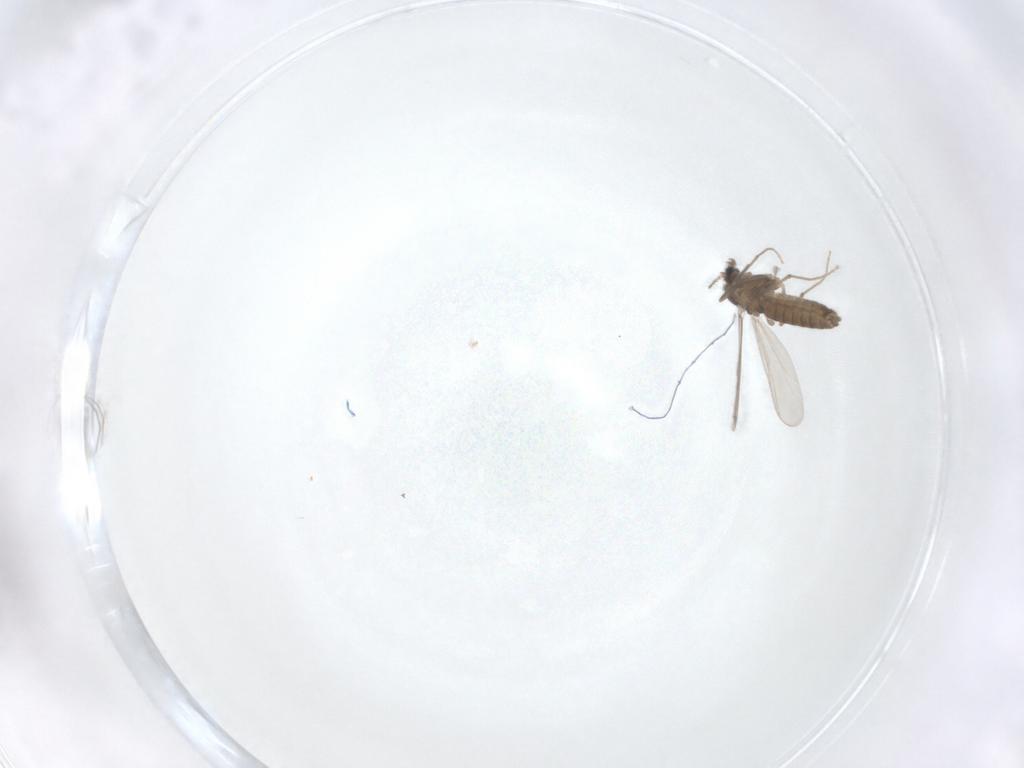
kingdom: Animalia
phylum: Arthropoda
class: Insecta
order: Diptera
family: Chironomidae
